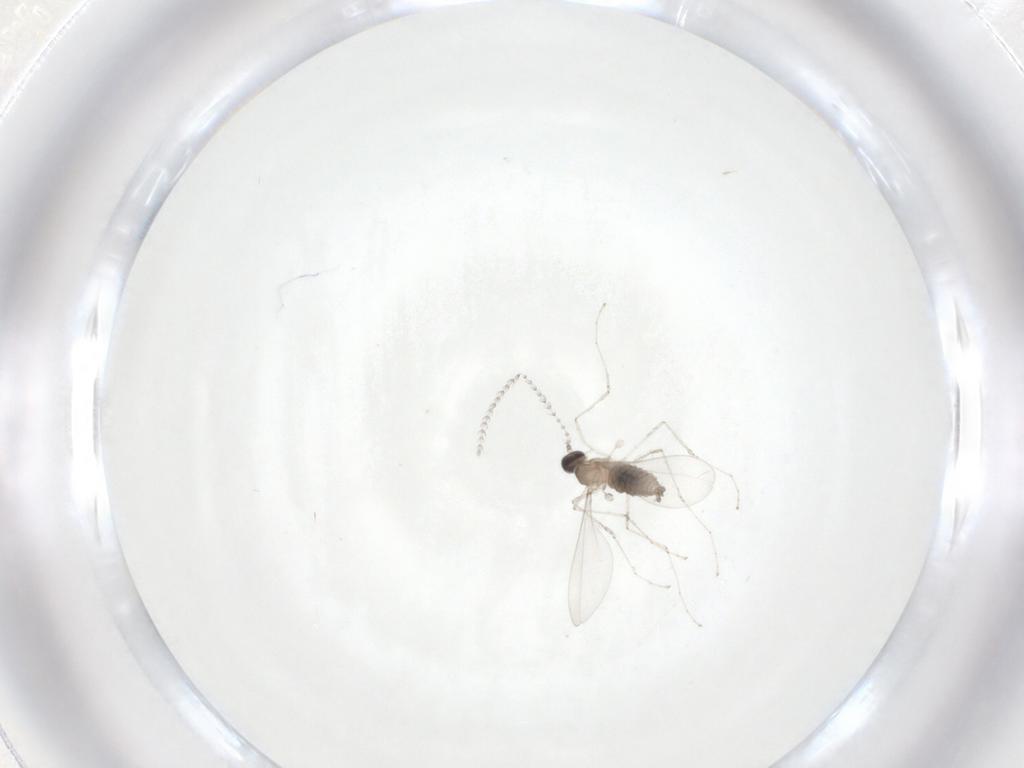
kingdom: Animalia
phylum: Arthropoda
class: Insecta
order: Diptera
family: Cecidomyiidae
